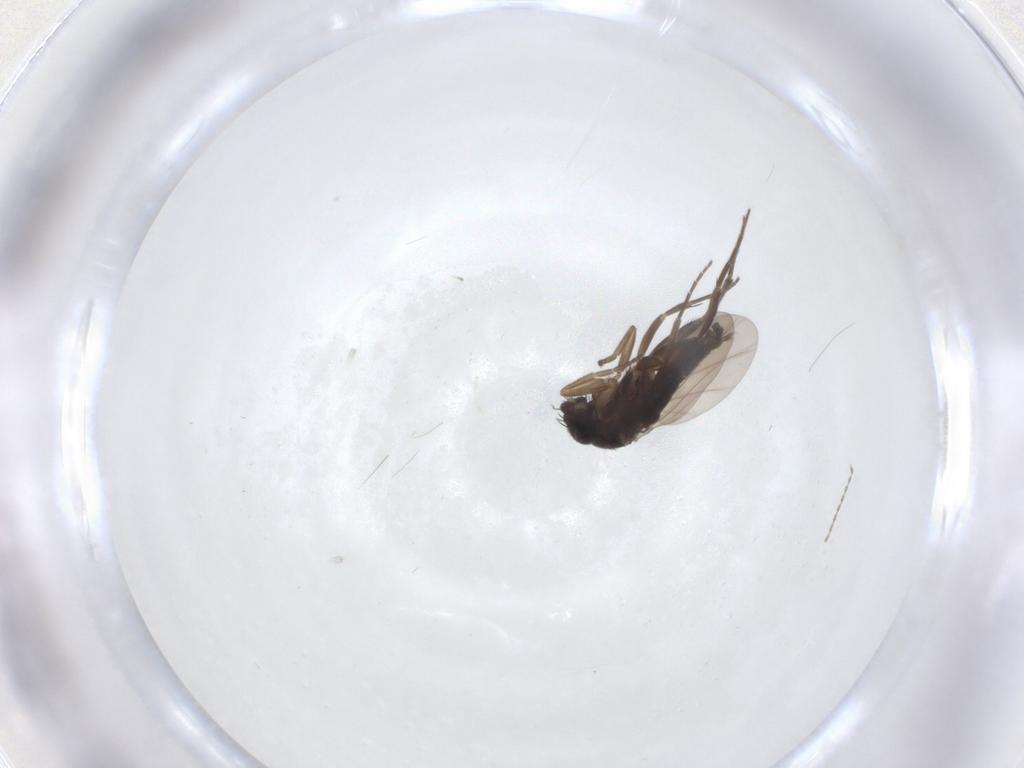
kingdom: Animalia
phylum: Arthropoda
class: Insecta
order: Diptera
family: Phoridae
